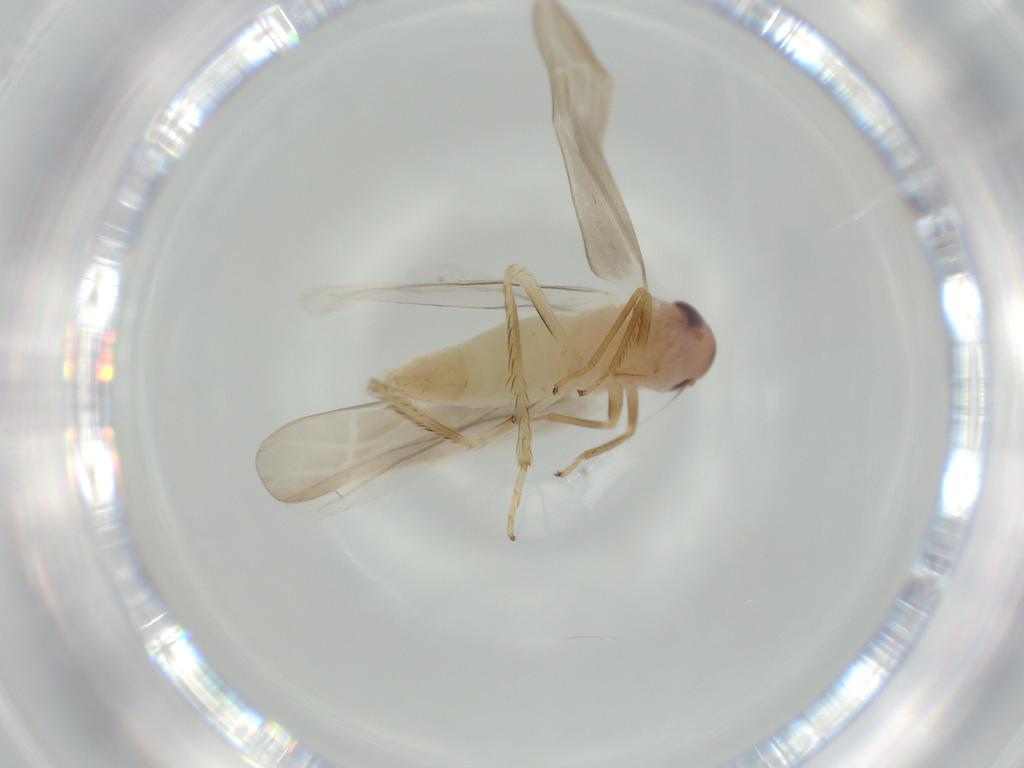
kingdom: Animalia
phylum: Arthropoda
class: Insecta
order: Hemiptera
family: Cicadellidae
